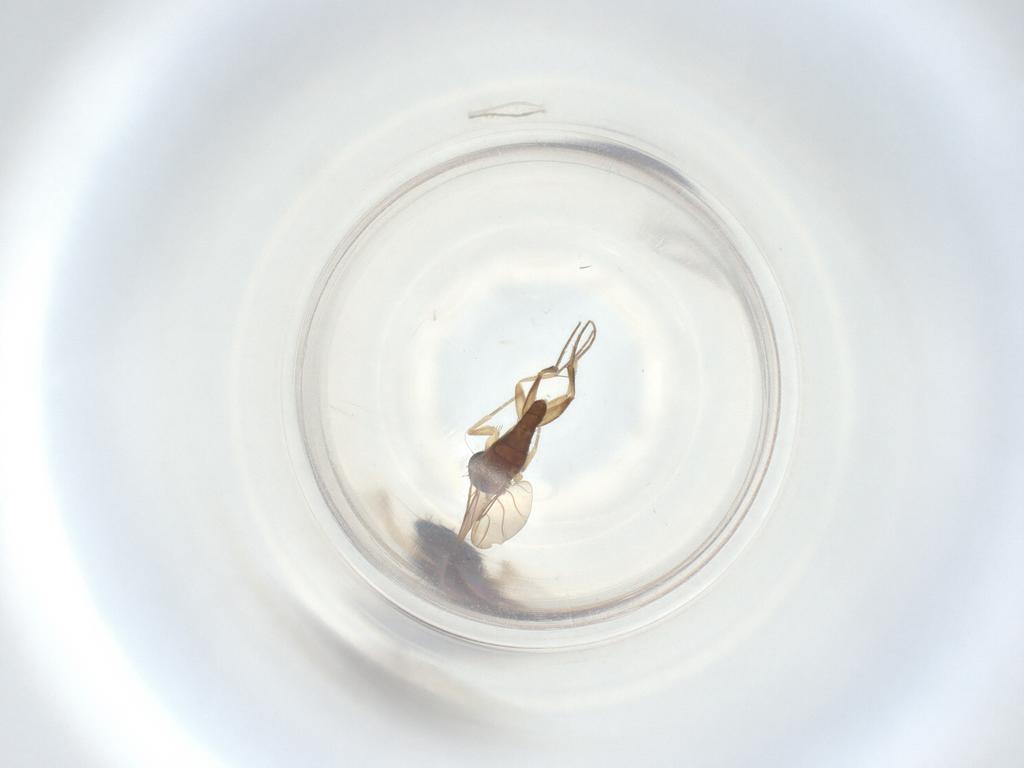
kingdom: Animalia
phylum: Arthropoda
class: Insecta
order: Diptera
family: Phoridae
